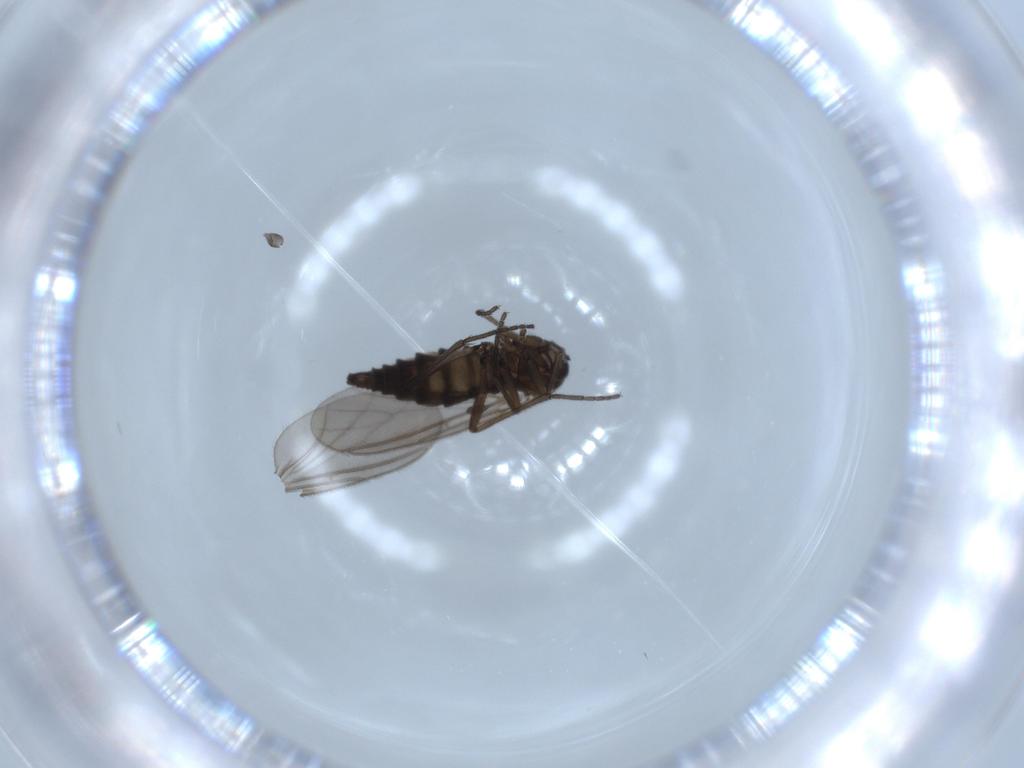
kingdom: Animalia
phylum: Arthropoda
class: Insecta
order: Diptera
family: Sciaridae
